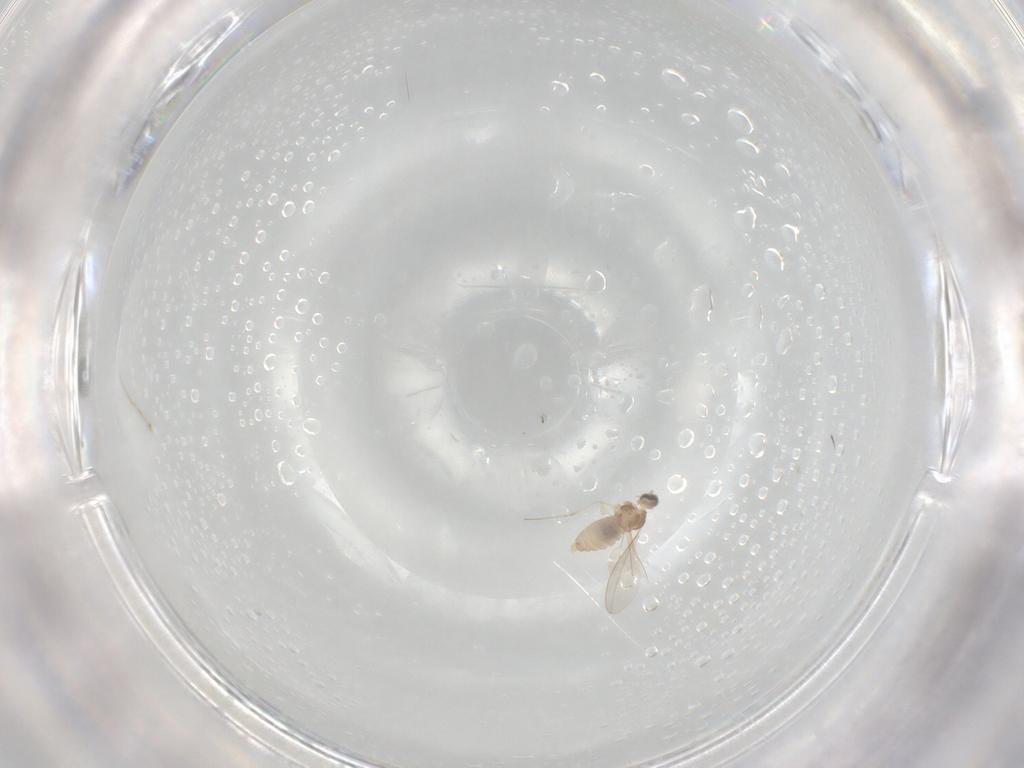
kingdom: Animalia
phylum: Arthropoda
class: Insecta
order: Diptera
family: Cecidomyiidae
